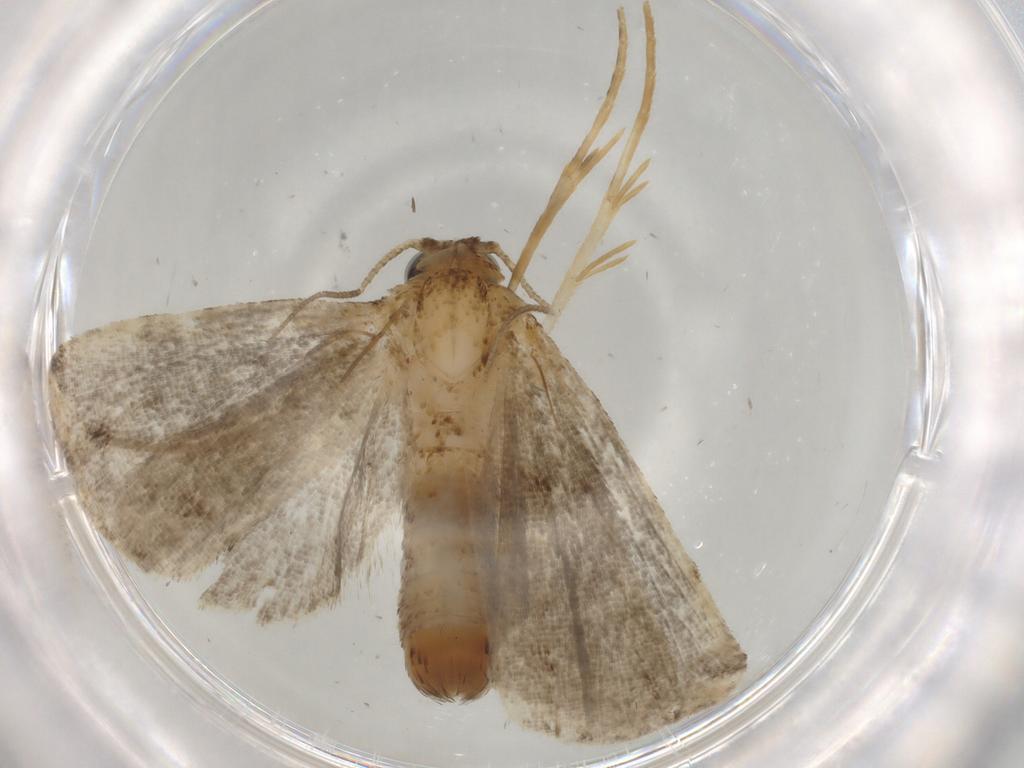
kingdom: Animalia
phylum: Arthropoda
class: Insecta
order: Lepidoptera
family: Erebidae
